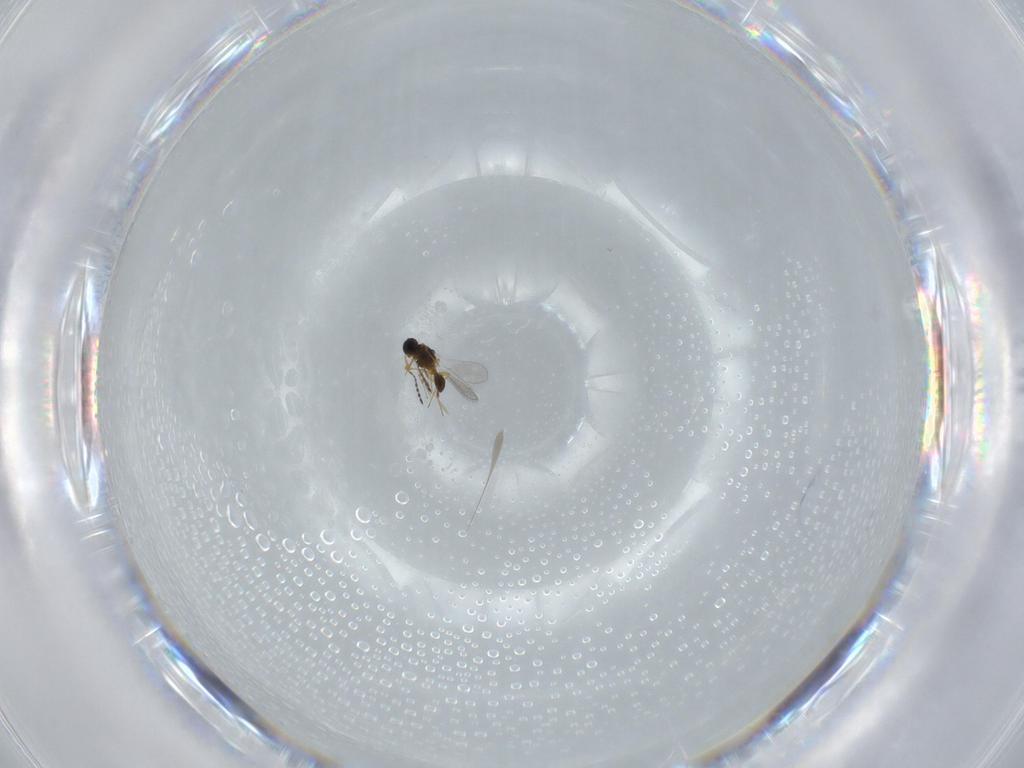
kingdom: Animalia
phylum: Arthropoda
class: Insecta
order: Hymenoptera
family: Platygastridae
